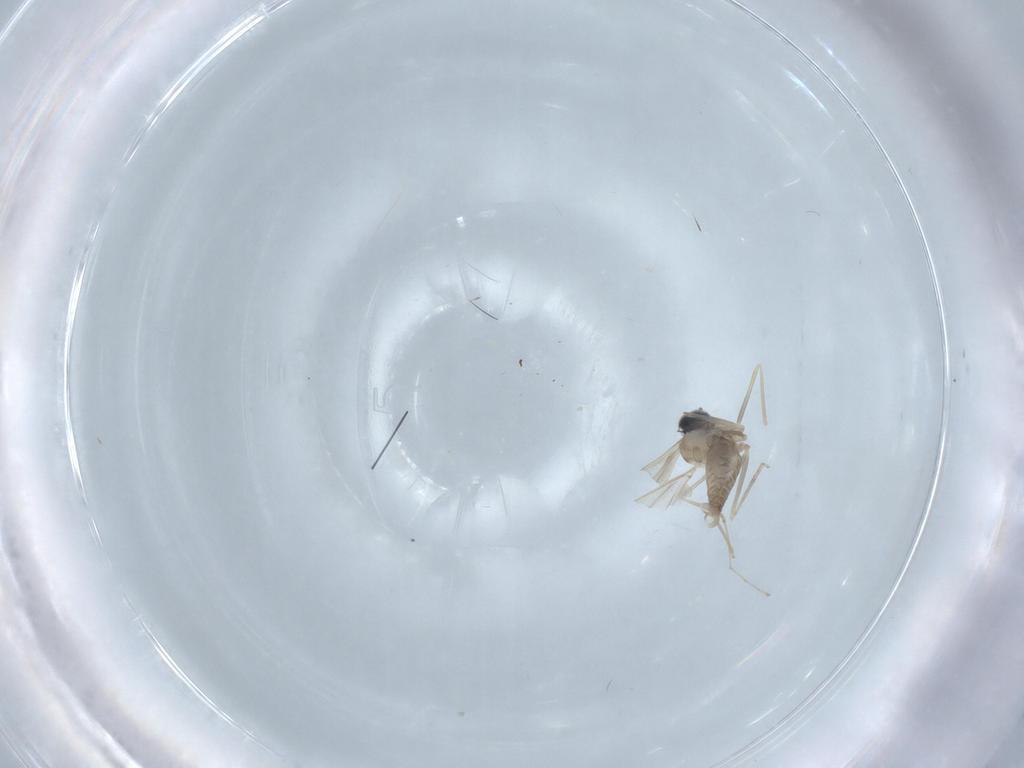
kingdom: Animalia
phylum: Arthropoda
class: Insecta
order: Diptera
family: Cecidomyiidae
